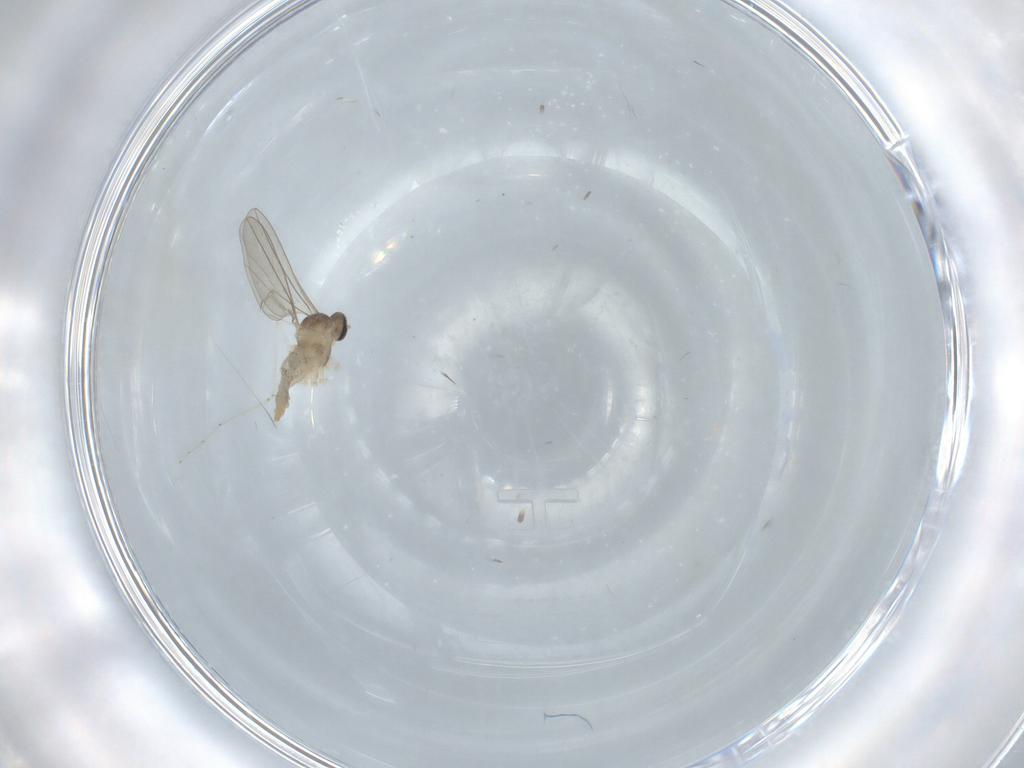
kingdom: Animalia
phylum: Arthropoda
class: Insecta
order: Diptera
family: Cecidomyiidae
